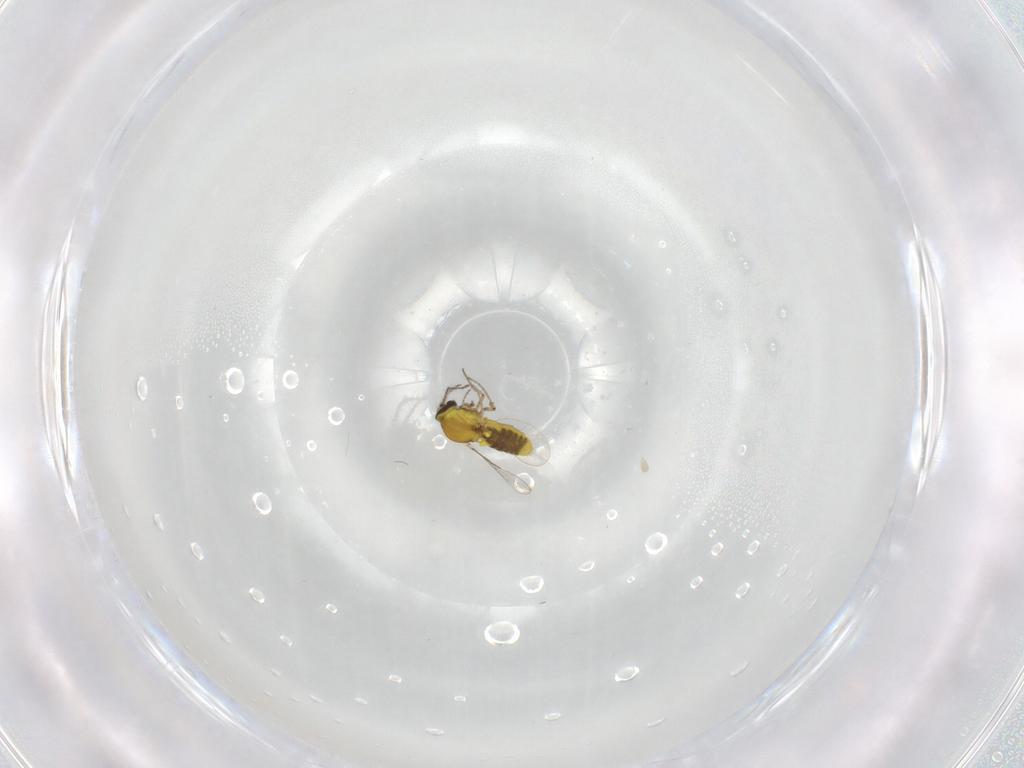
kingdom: Animalia
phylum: Arthropoda
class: Insecta
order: Diptera
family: Ceratopogonidae
